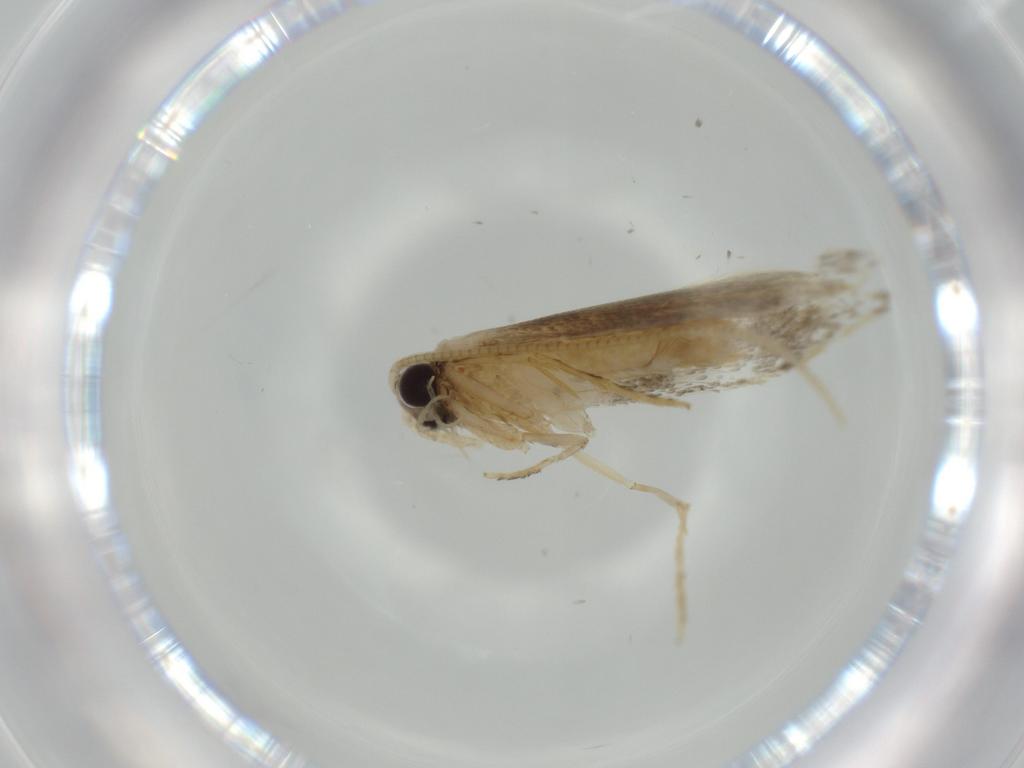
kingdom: Animalia
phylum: Arthropoda
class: Insecta
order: Lepidoptera
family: Tineidae
